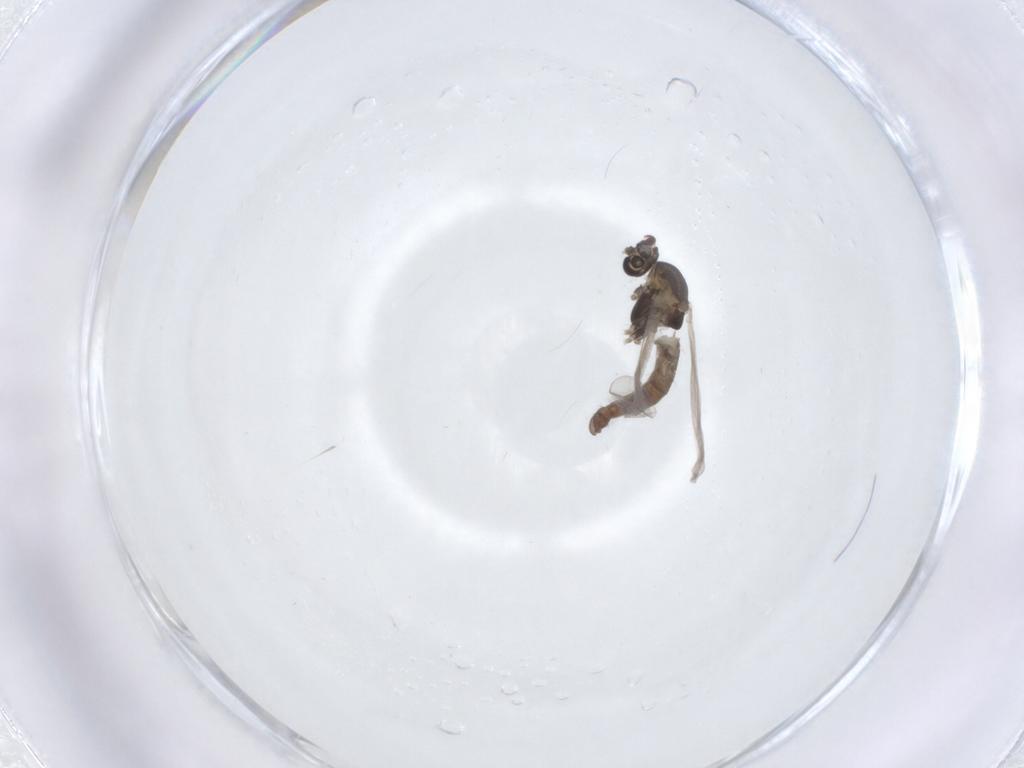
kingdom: Animalia
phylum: Arthropoda
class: Insecta
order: Diptera
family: Chironomidae
